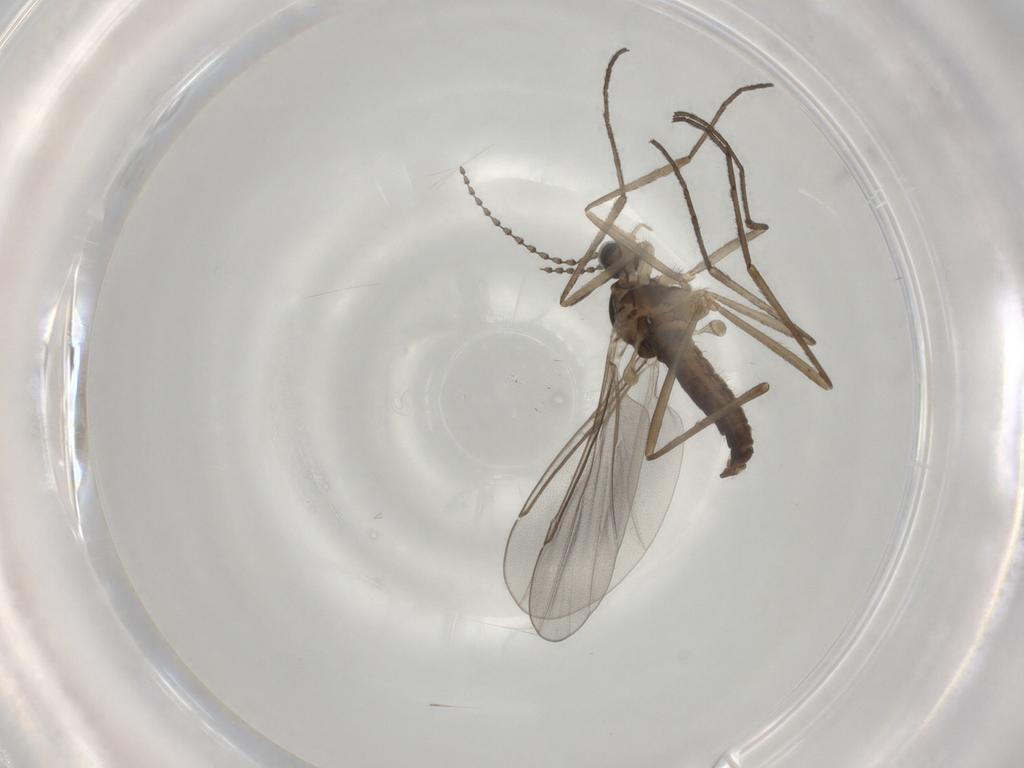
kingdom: Animalia
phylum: Arthropoda
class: Insecta
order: Diptera
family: Cecidomyiidae
